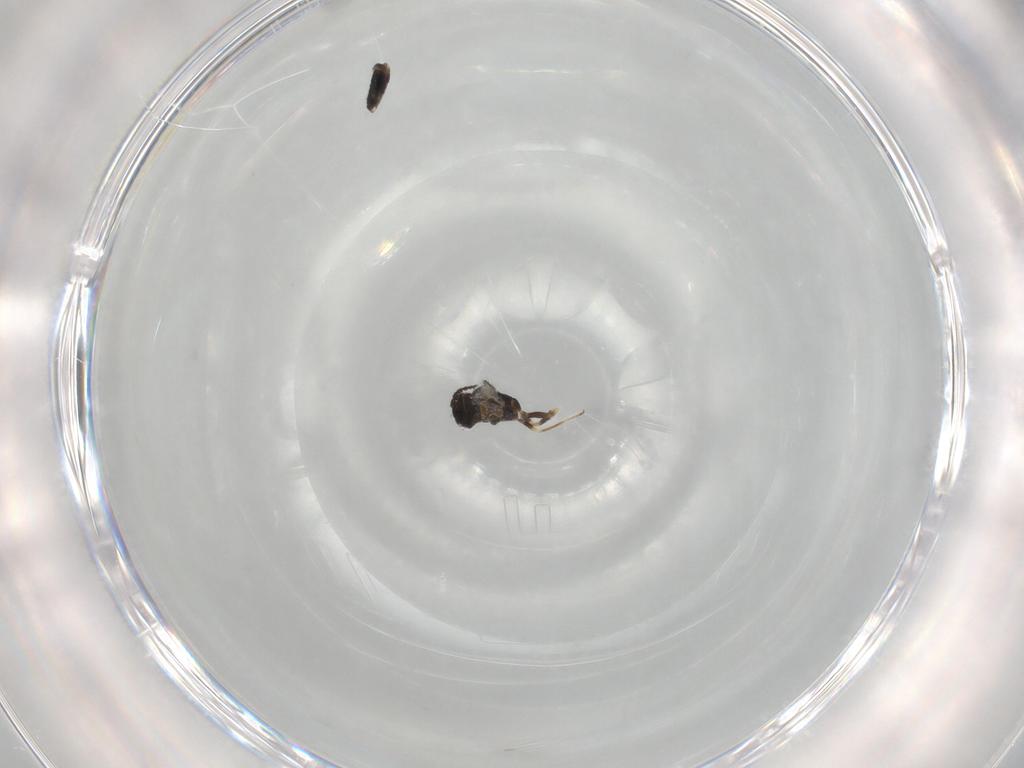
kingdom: Animalia
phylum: Arthropoda
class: Insecta
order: Hymenoptera
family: Eulophidae
